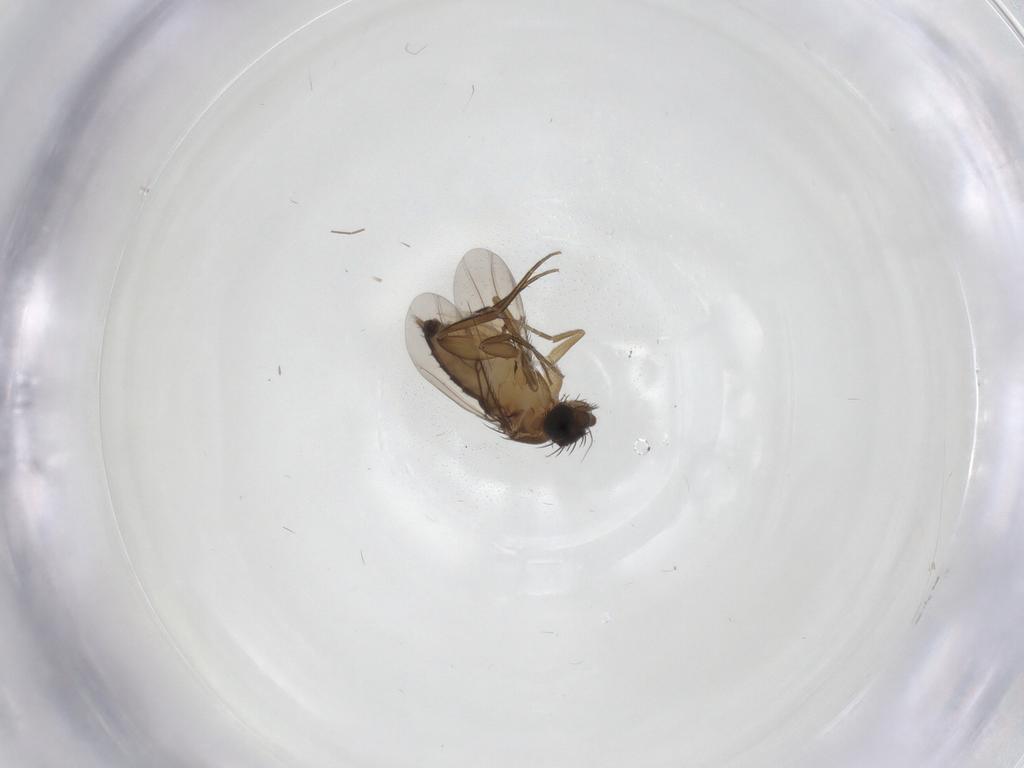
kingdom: Animalia
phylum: Arthropoda
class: Insecta
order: Diptera
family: Phoridae
